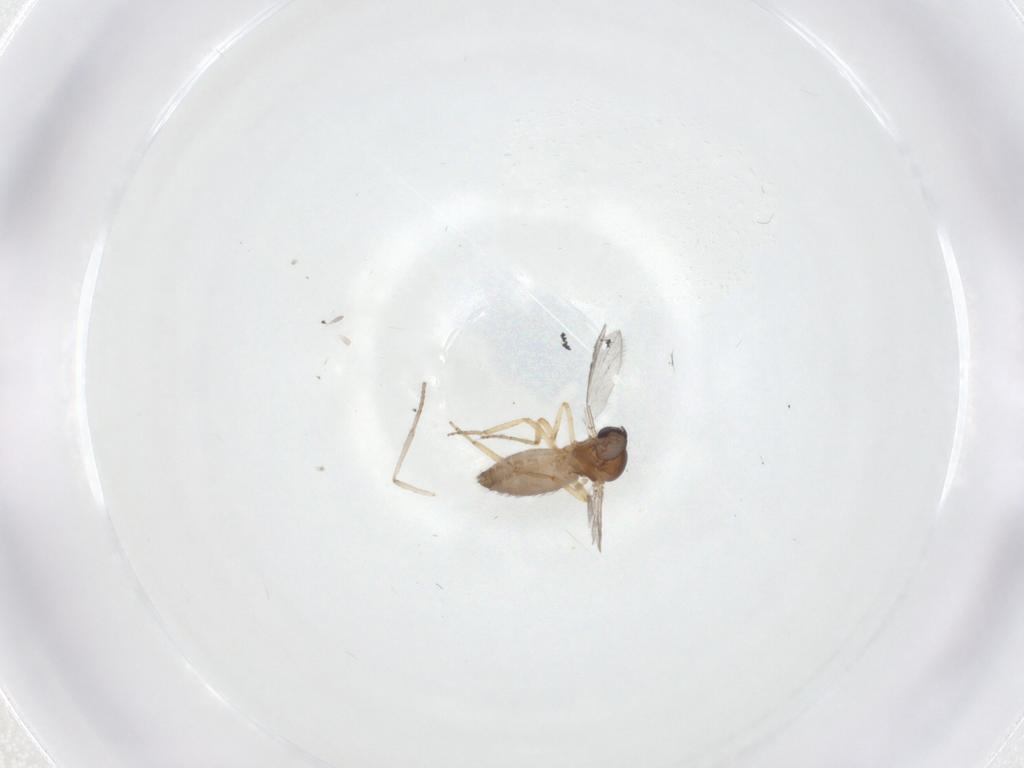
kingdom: Animalia
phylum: Arthropoda
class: Insecta
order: Diptera
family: Ceratopogonidae
